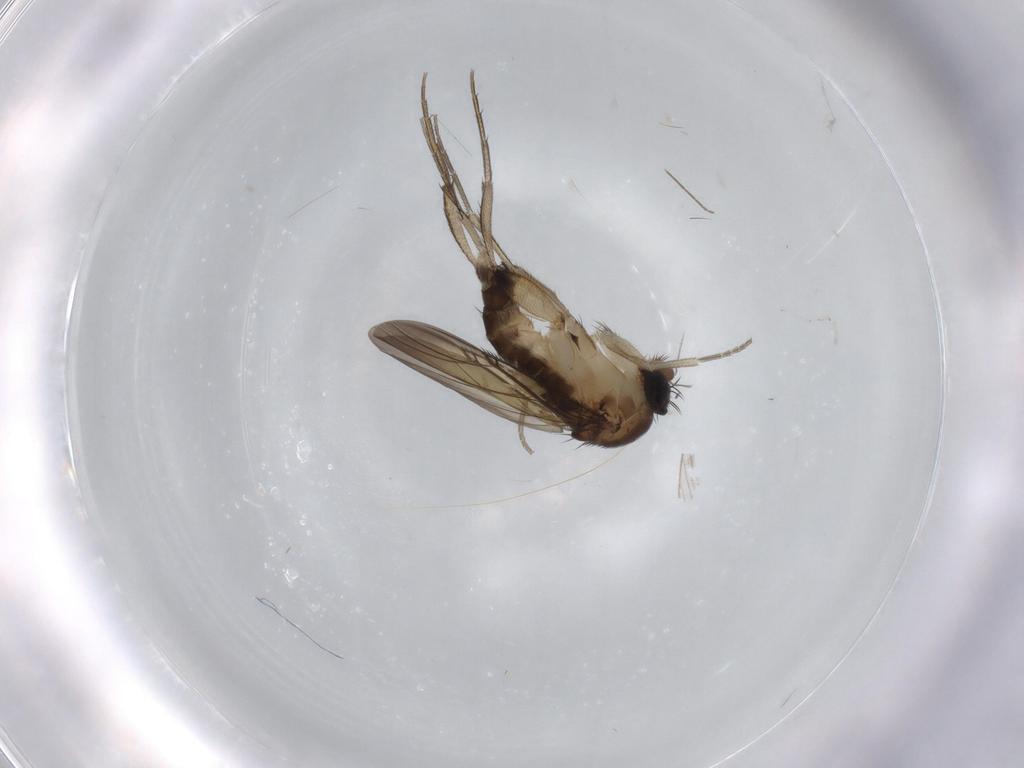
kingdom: Animalia
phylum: Arthropoda
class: Insecta
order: Diptera
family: Phoridae
